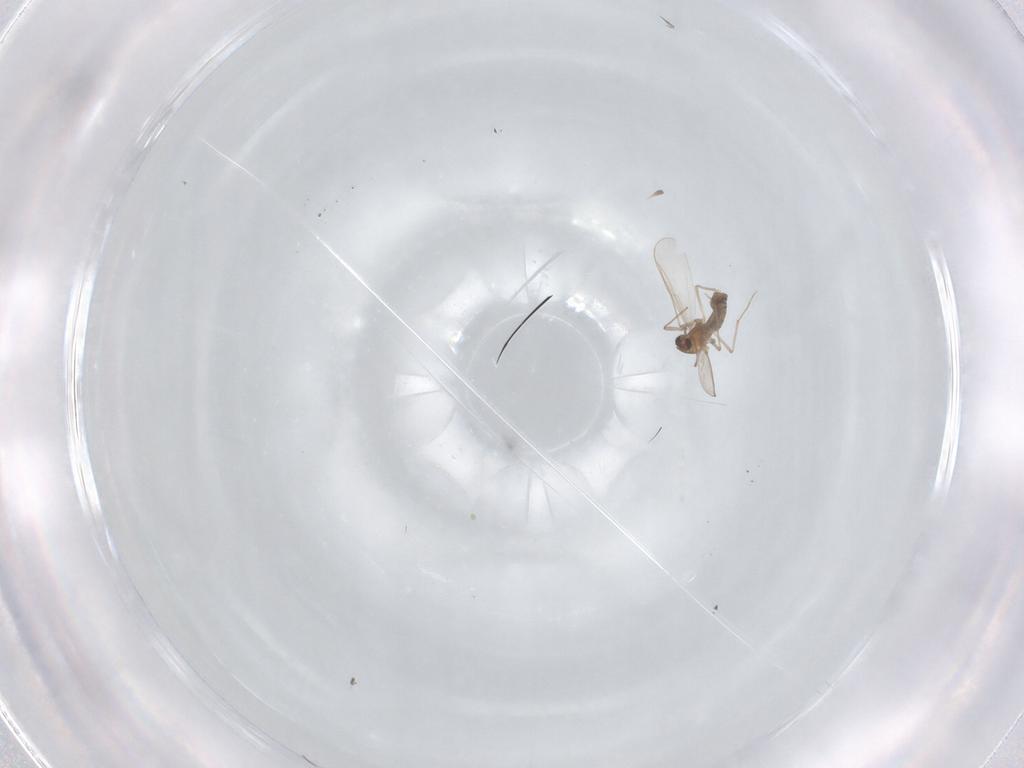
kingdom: Animalia
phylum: Arthropoda
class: Insecta
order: Diptera
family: Chironomidae
